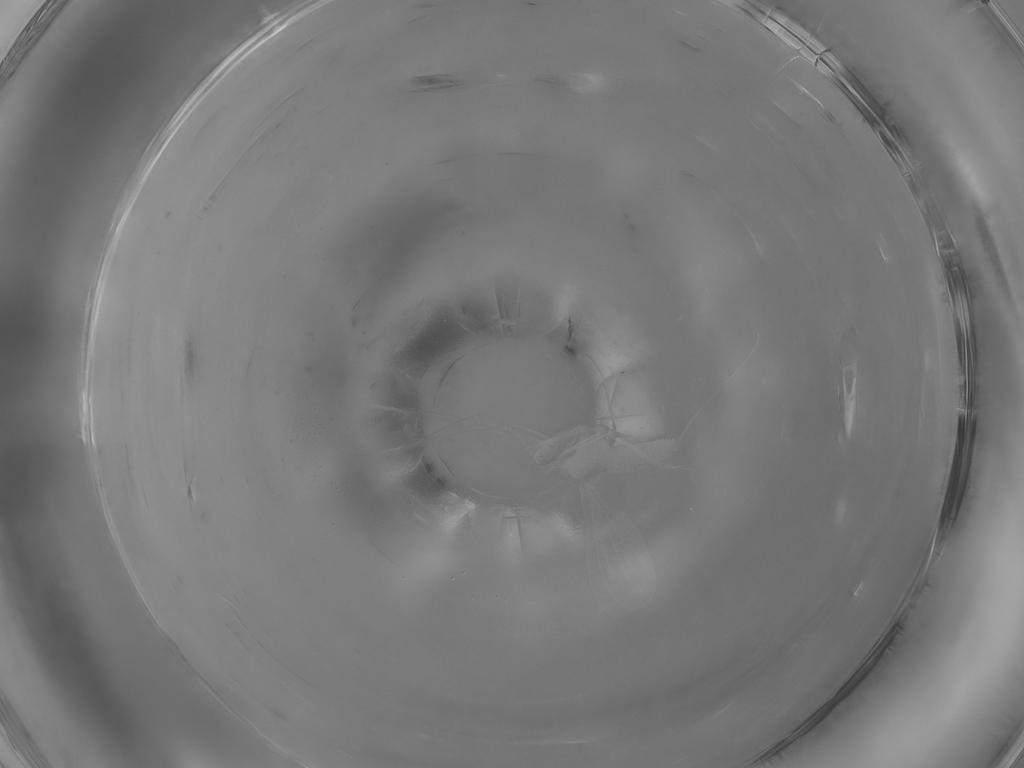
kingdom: Animalia
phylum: Arthropoda
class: Insecta
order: Diptera
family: Cecidomyiidae
